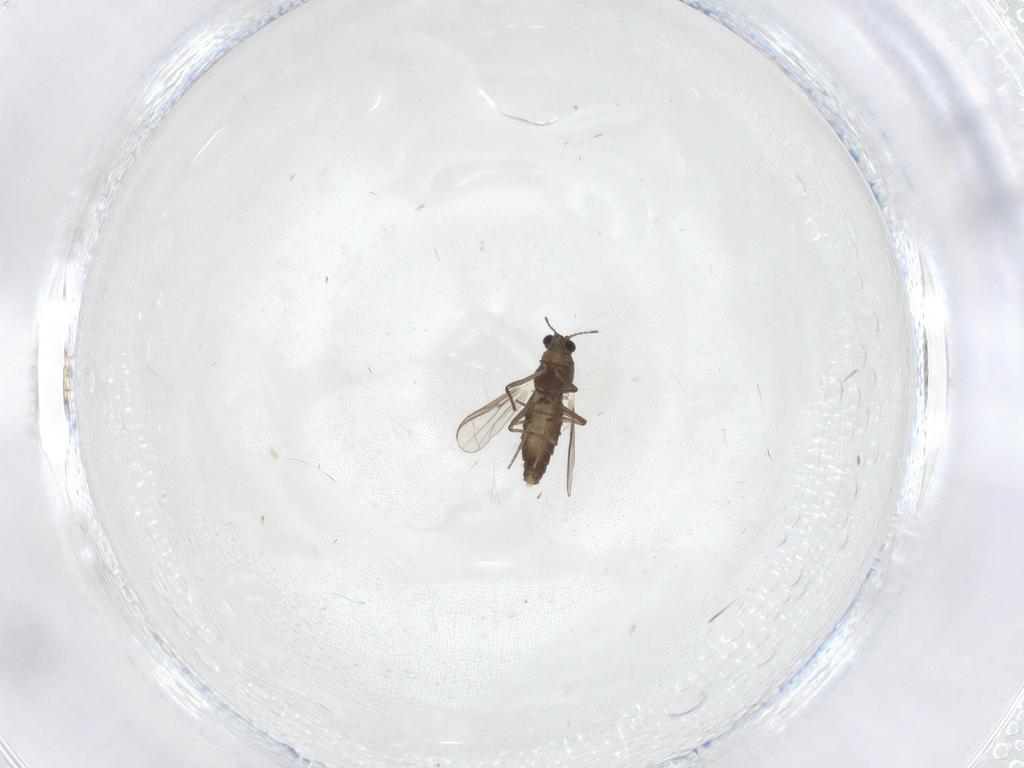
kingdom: Animalia
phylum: Arthropoda
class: Insecta
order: Diptera
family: Chironomidae
